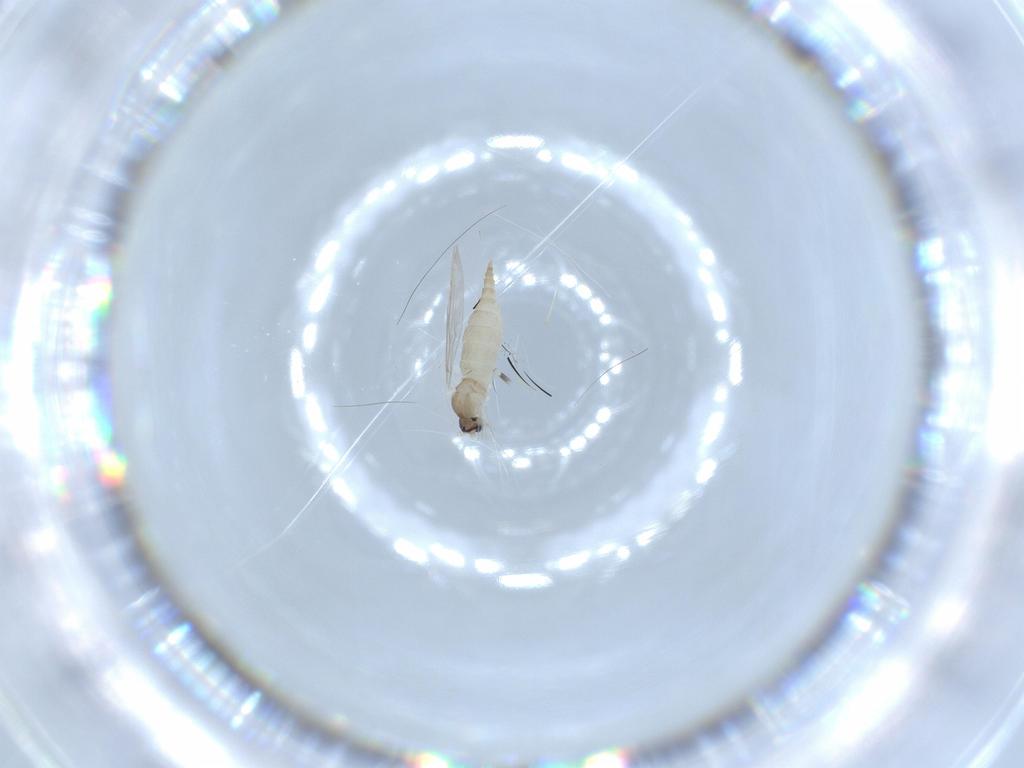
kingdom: Animalia
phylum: Arthropoda
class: Insecta
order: Diptera
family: Cecidomyiidae
